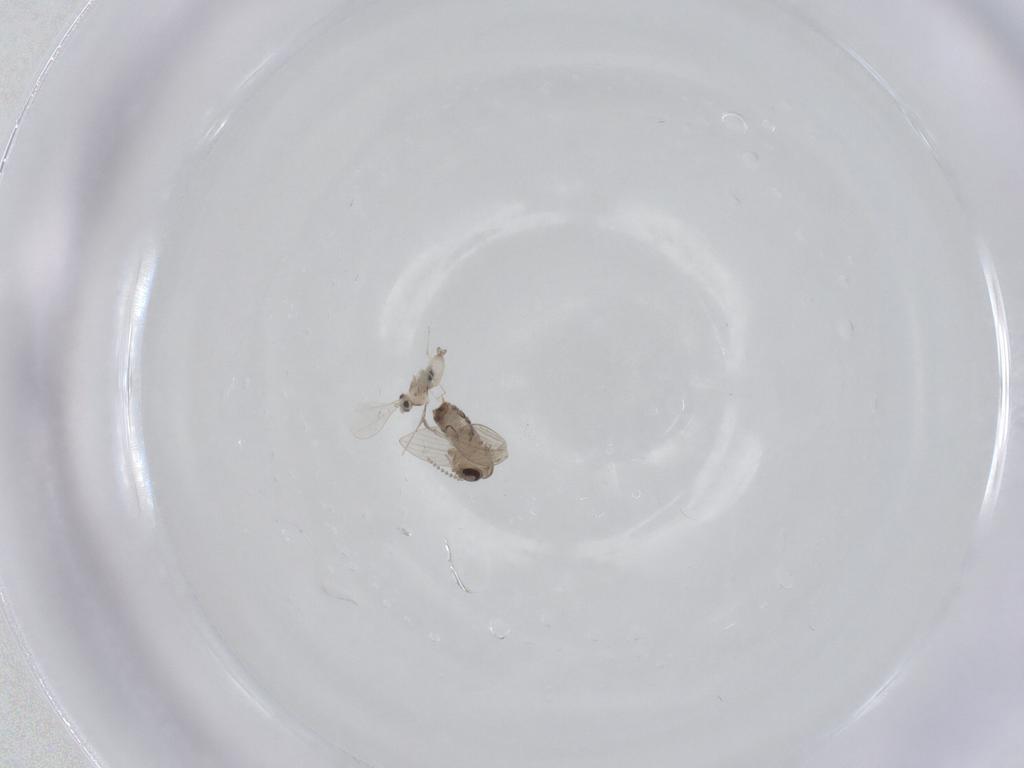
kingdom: Animalia
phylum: Arthropoda
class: Insecta
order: Diptera
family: Cecidomyiidae
